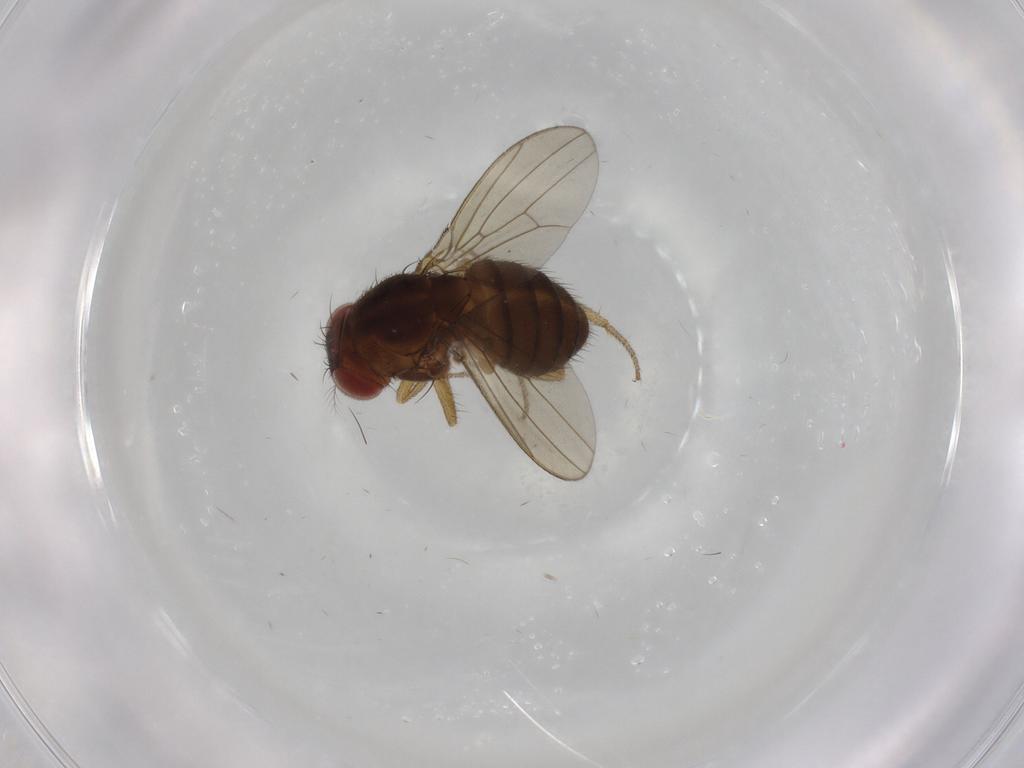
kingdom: Animalia
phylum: Arthropoda
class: Insecta
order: Diptera
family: Drosophilidae
